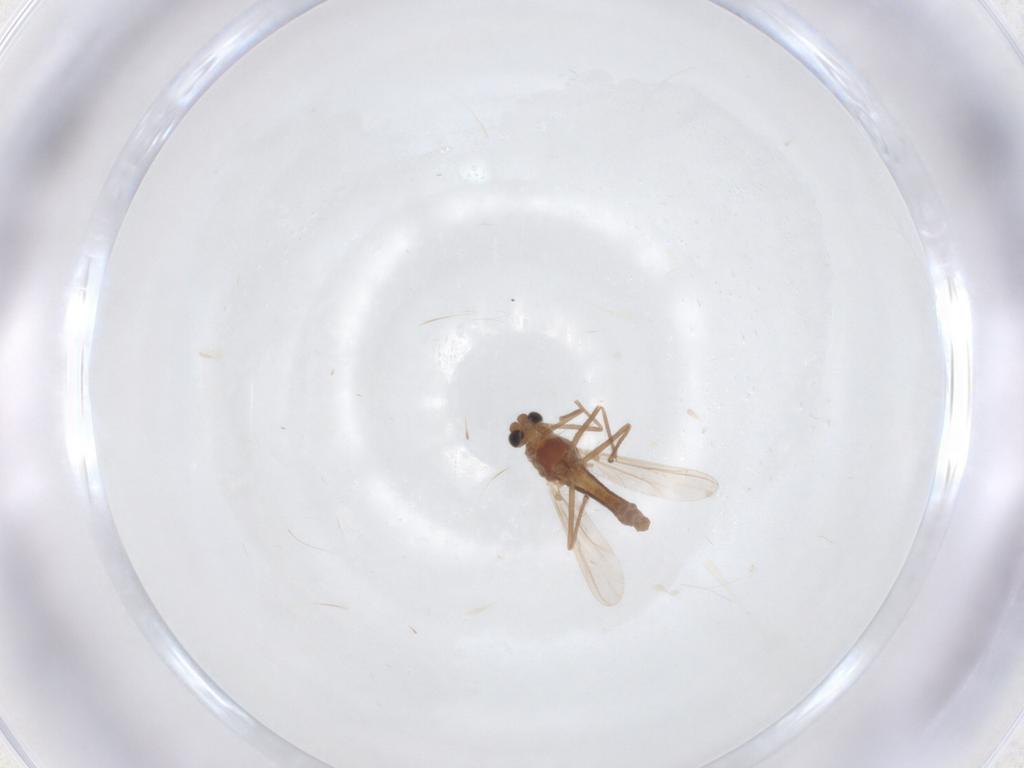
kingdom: Animalia
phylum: Arthropoda
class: Insecta
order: Diptera
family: Chironomidae
